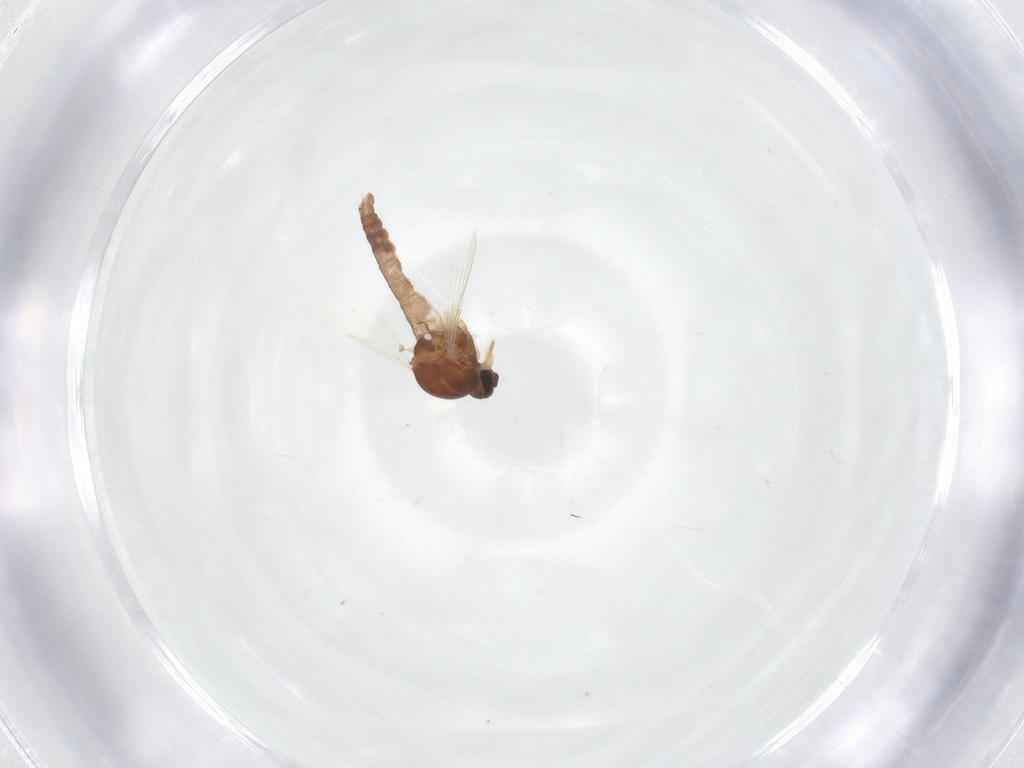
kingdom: Animalia
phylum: Arthropoda
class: Insecta
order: Diptera
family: Ceratopogonidae
